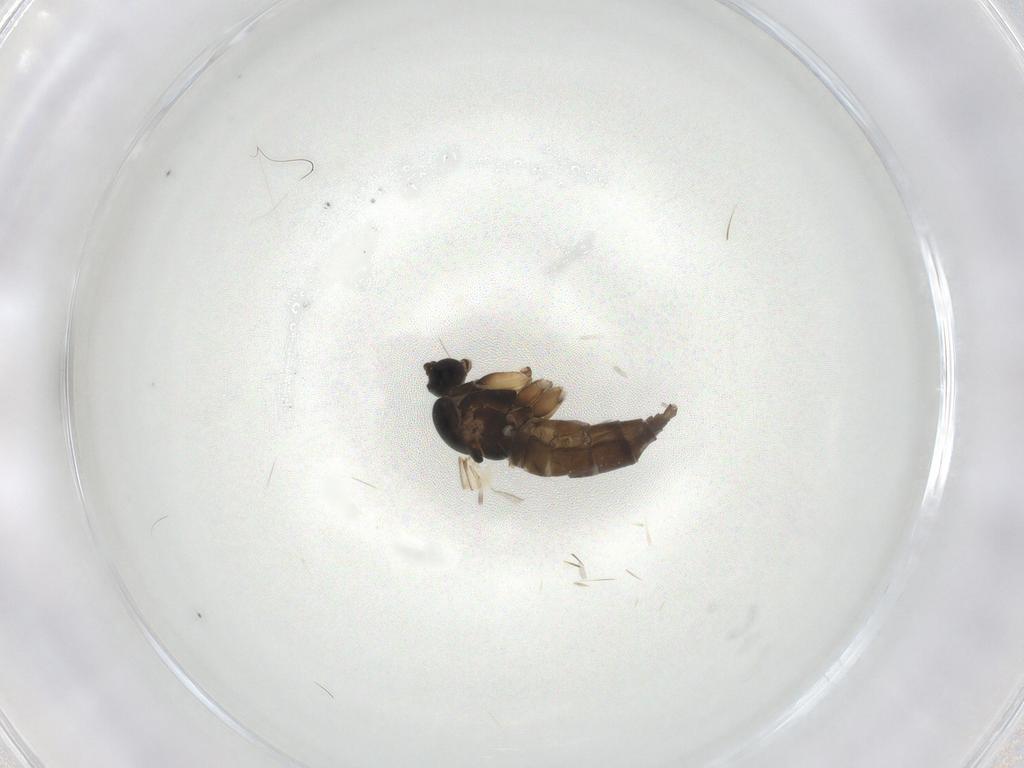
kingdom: Animalia
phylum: Arthropoda
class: Insecta
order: Diptera
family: Sciaridae
